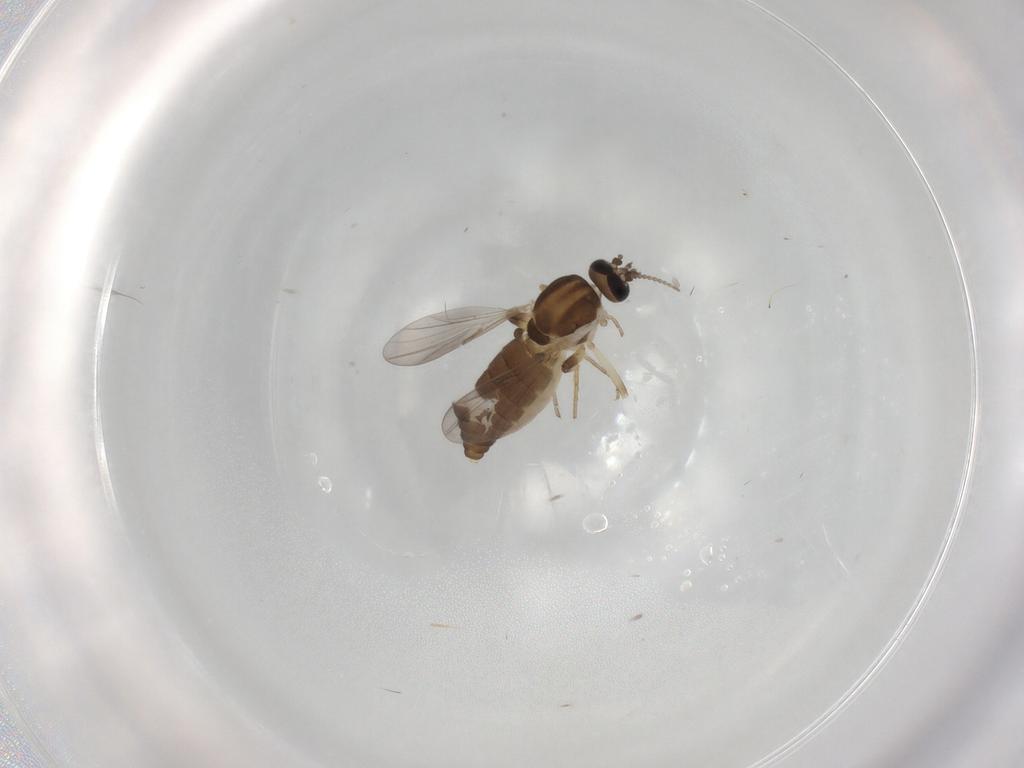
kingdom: Animalia
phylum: Arthropoda
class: Insecta
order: Diptera
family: Ceratopogonidae
